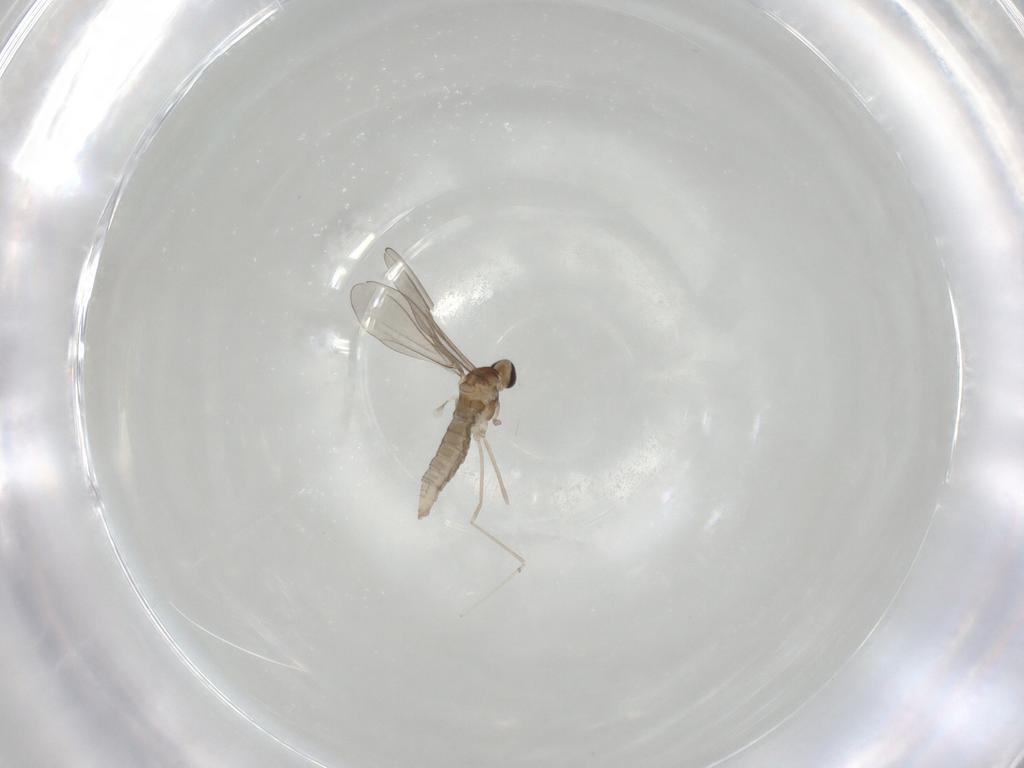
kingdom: Animalia
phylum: Arthropoda
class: Insecta
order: Diptera
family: Cecidomyiidae
